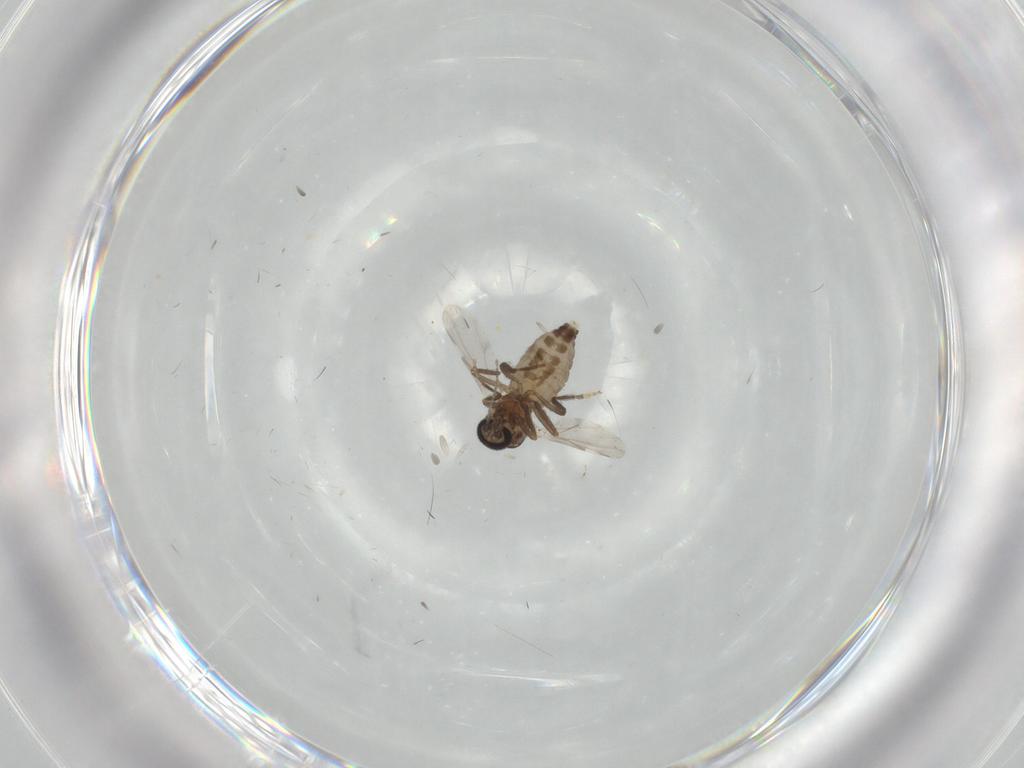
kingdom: Animalia
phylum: Arthropoda
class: Insecta
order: Diptera
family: Ceratopogonidae
